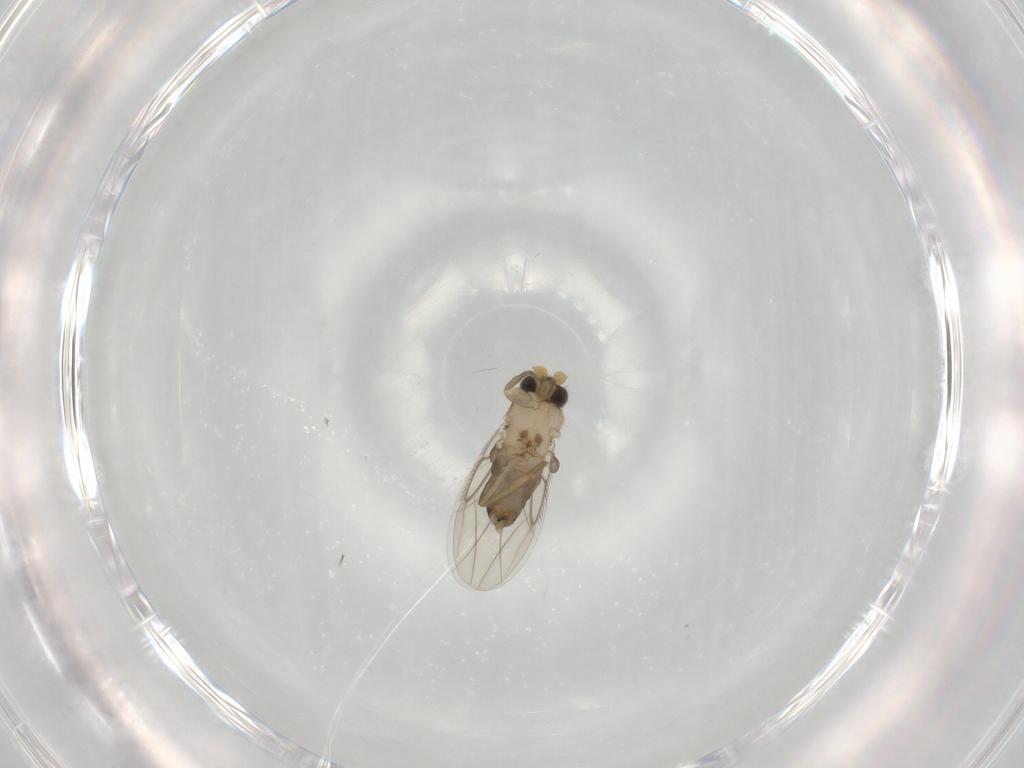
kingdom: Animalia
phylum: Arthropoda
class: Insecta
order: Diptera
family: Phoridae
